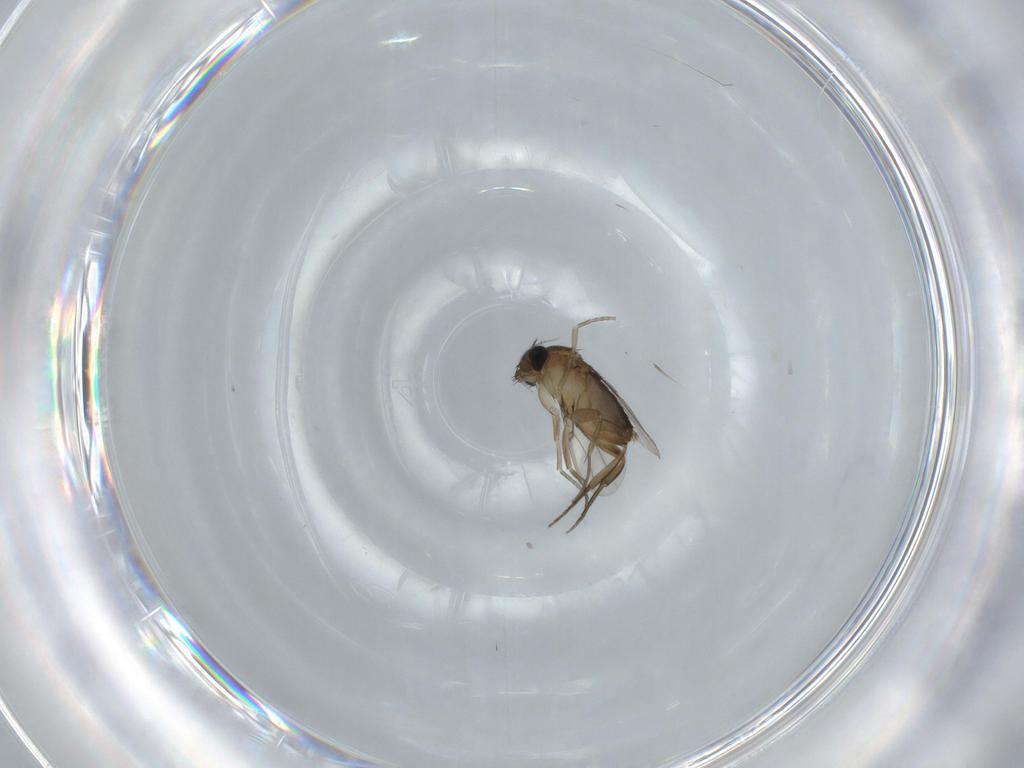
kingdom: Animalia
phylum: Arthropoda
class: Insecta
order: Diptera
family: Phoridae
